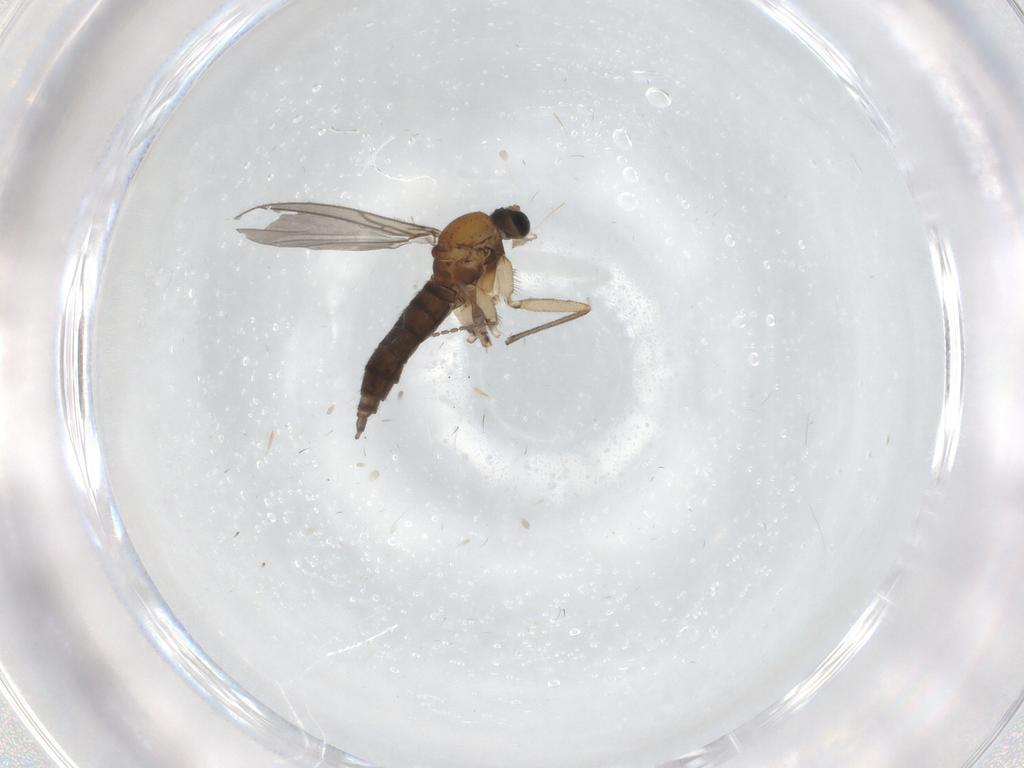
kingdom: Animalia
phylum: Arthropoda
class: Insecta
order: Diptera
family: Sciaridae
